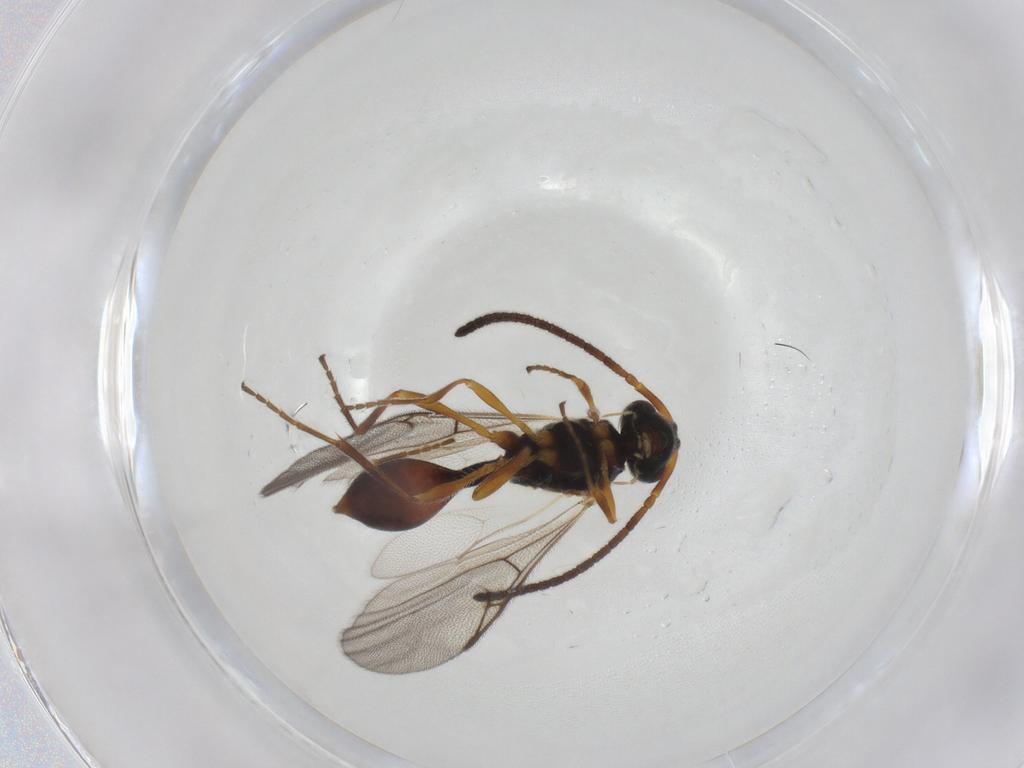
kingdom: Animalia
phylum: Arthropoda
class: Insecta
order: Hymenoptera
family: Diapriidae
